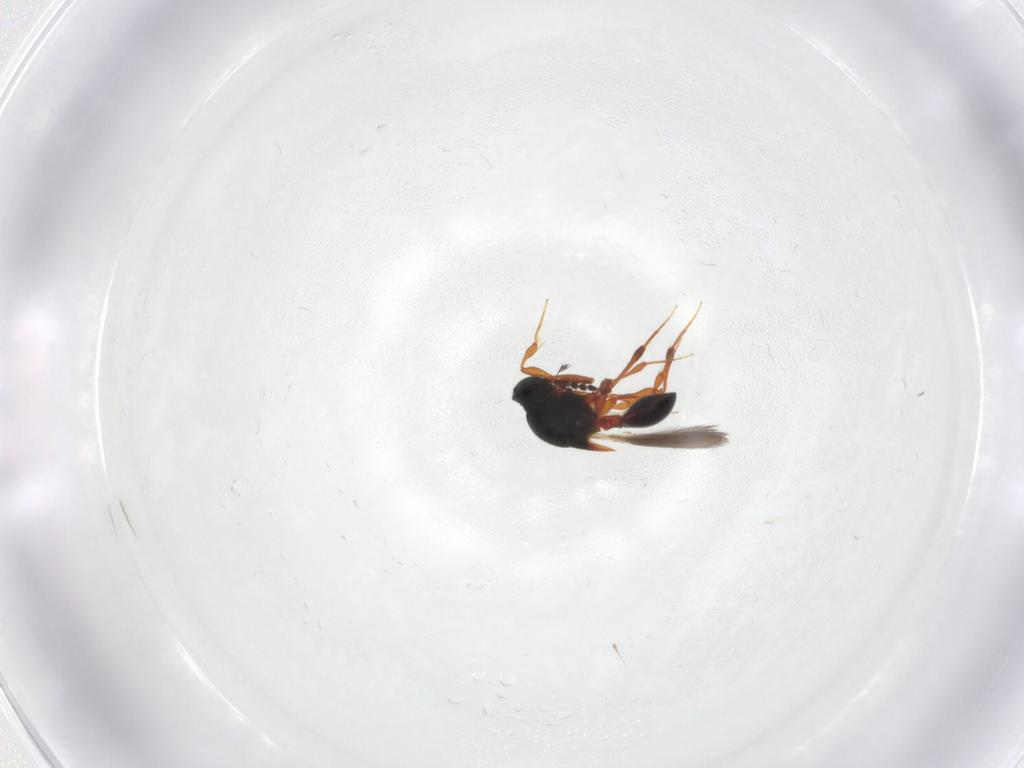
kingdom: Animalia
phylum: Arthropoda
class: Insecta
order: Hymenoptera
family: Platygastridae
